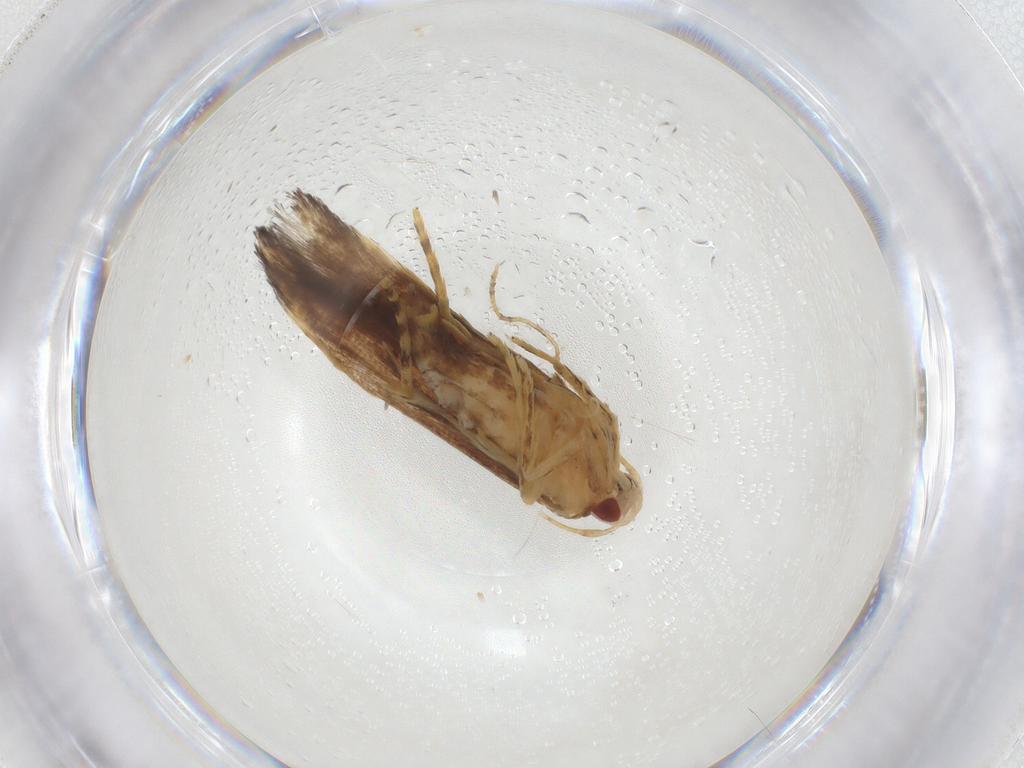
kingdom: Animalia
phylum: Arthropoda
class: Insecta
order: Lepidoptera
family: Cosmopterigidae
